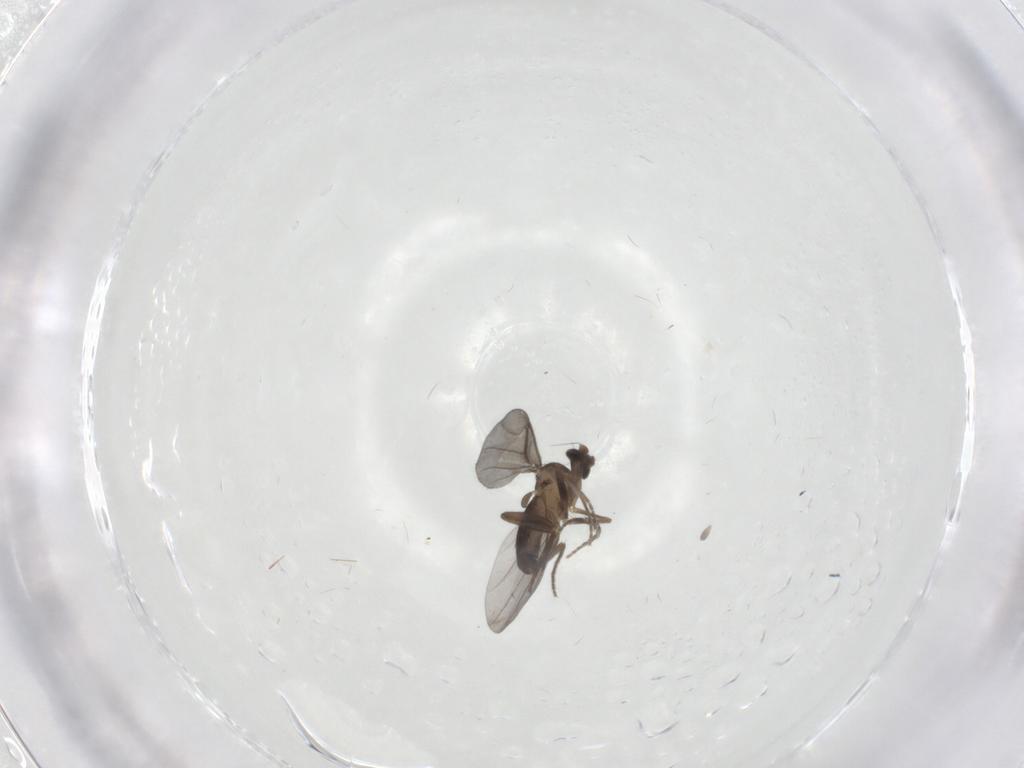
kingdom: Animalia
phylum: Arthropoda
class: Insecta
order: Diptera
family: Phoridae
